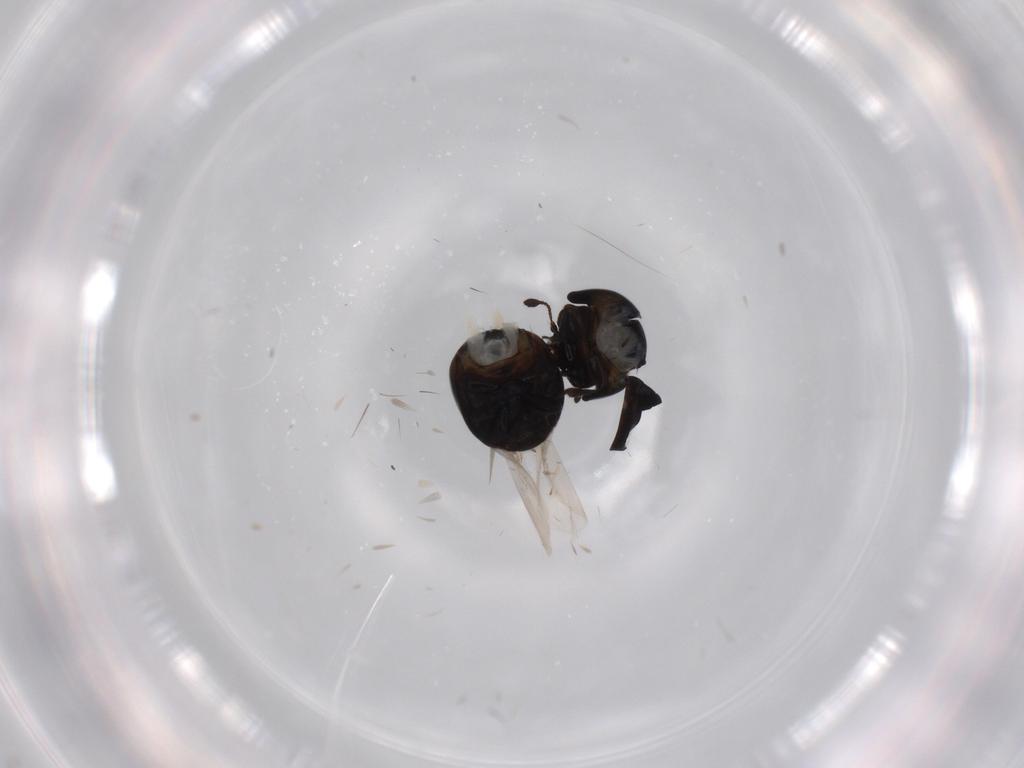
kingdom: Animalia
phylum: Arthropoda
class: Insecta
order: Coleoptera
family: Cybocephalidae
